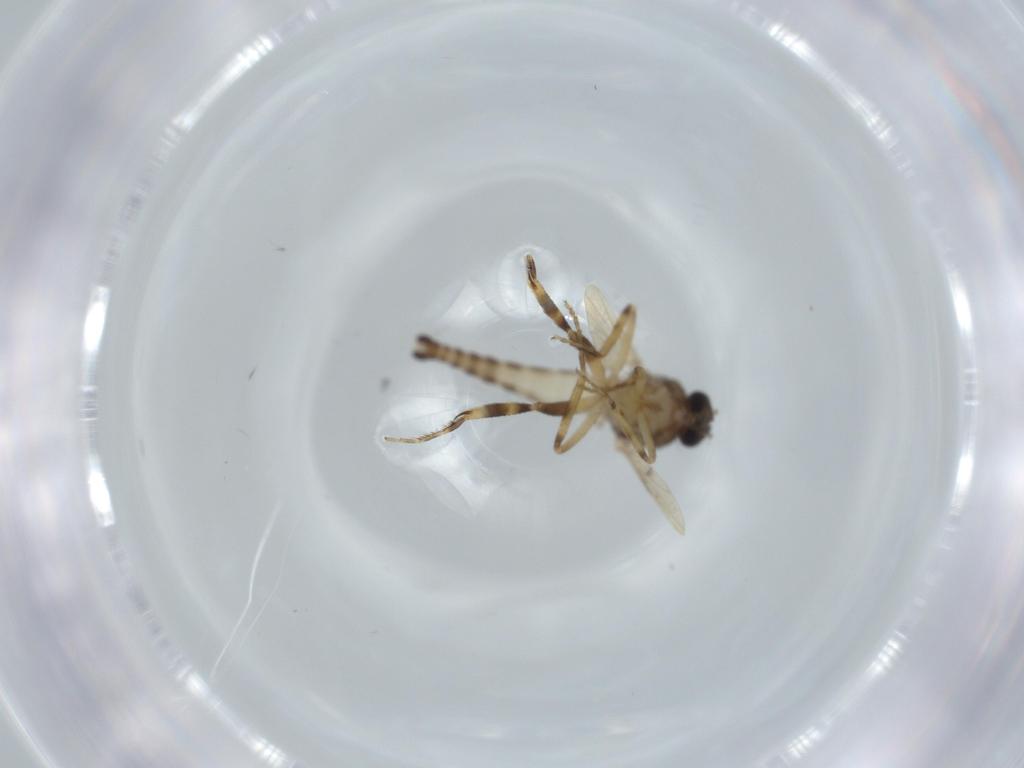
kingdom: Animalia
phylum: Arthropoda
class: Insecta
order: Diptera
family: Ceratopogonidae
